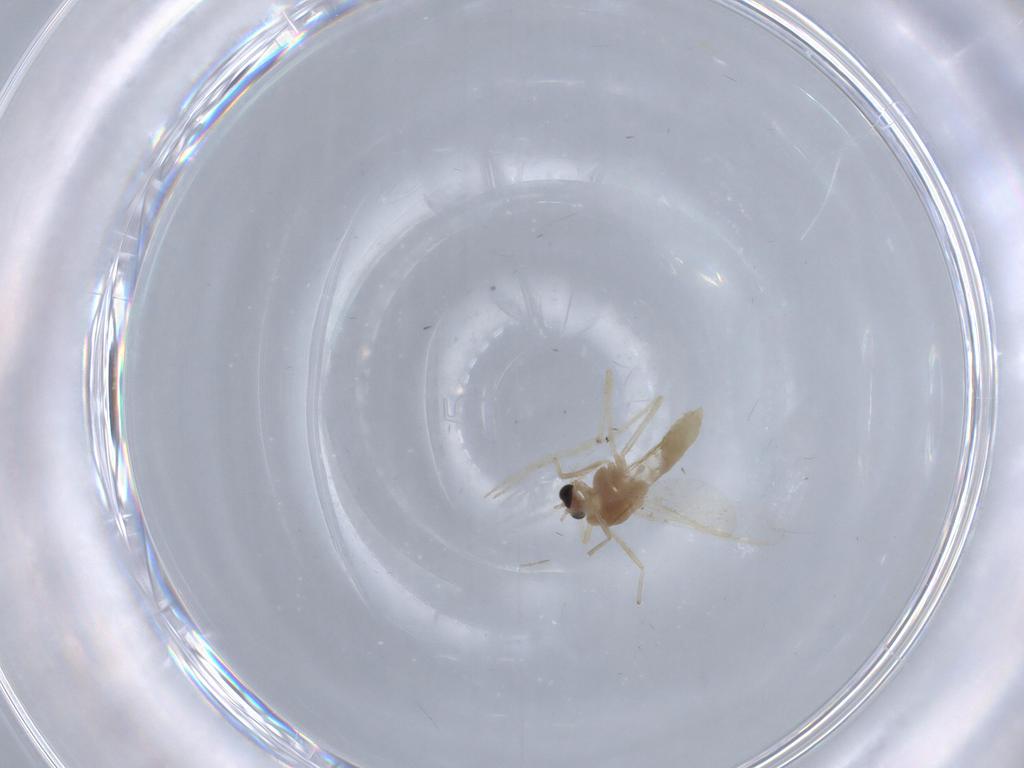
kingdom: Animalia
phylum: Arthropoda
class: Insecta
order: Diptera
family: Chironomidae
